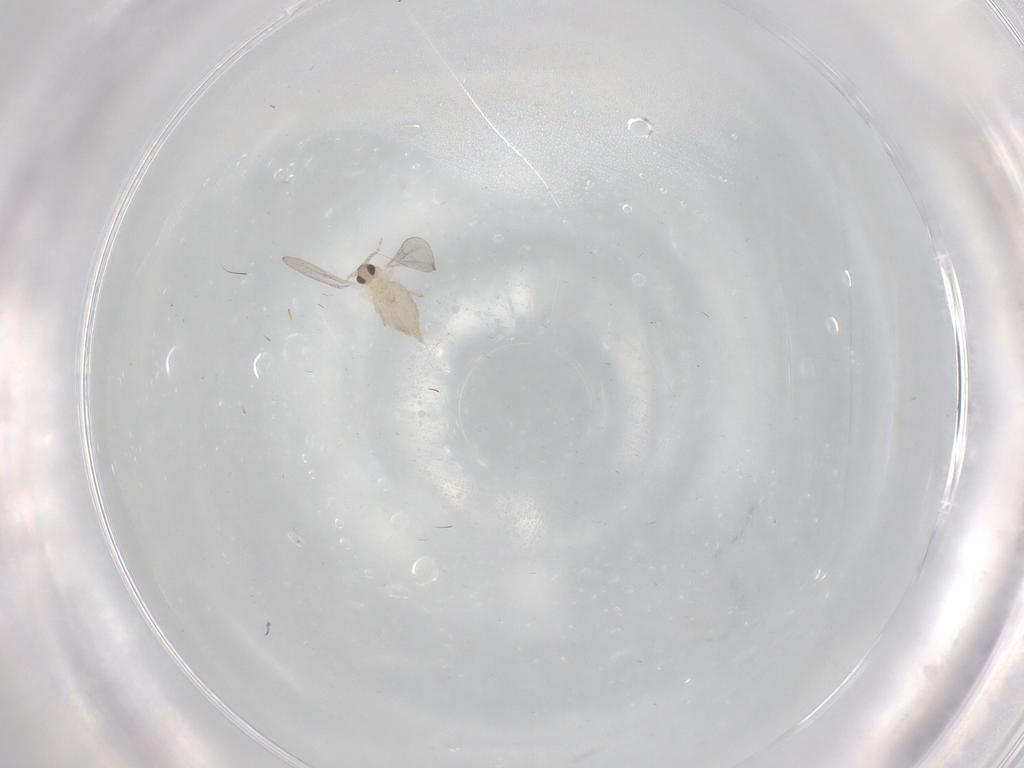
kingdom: Animalia
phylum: Arthropoda
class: Insecta
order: Diptera
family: Cecidomyiidae
